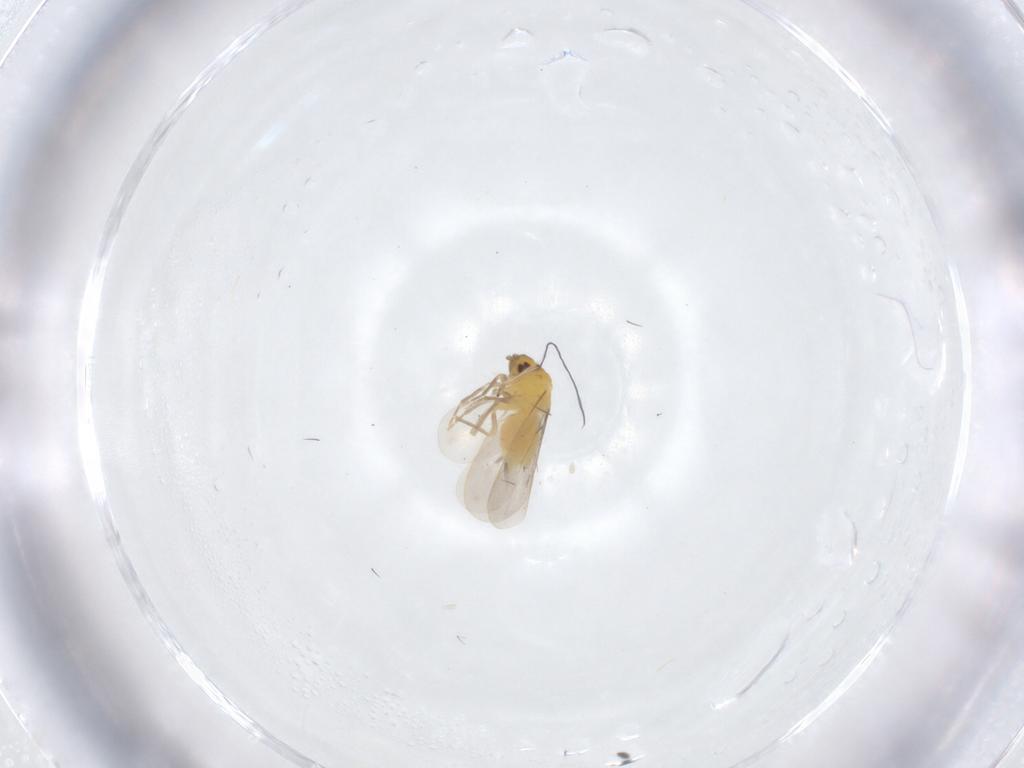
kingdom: Animalia
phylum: Arthropoda
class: Insecta
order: Hemiptera
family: Aleyrodidae
